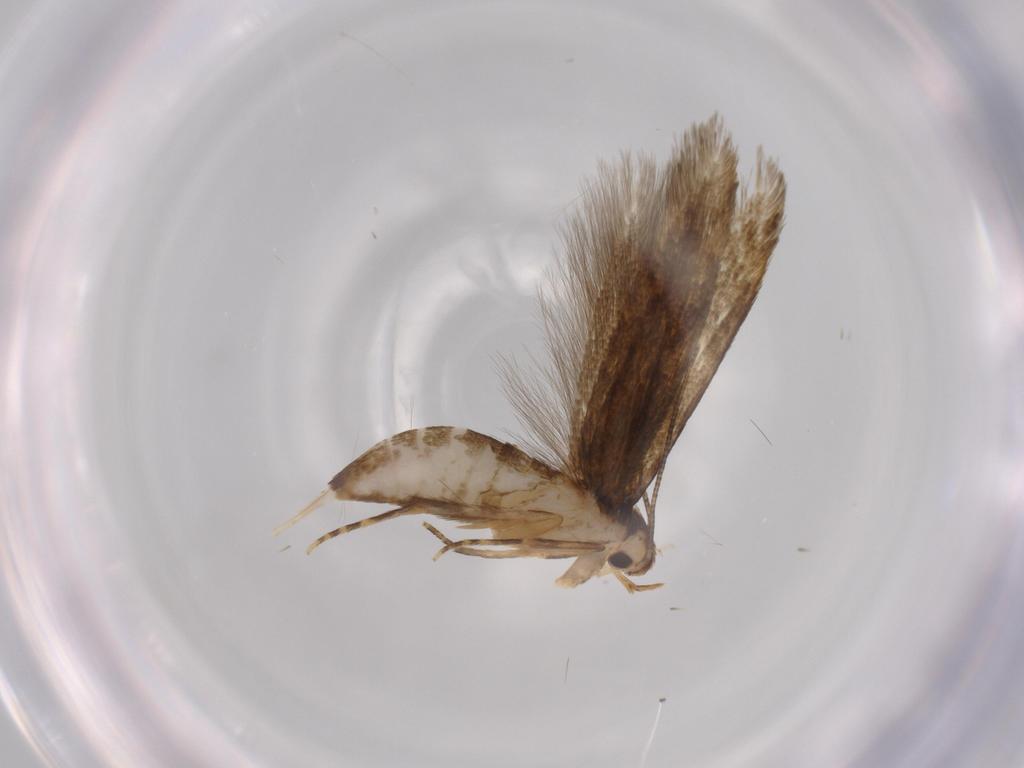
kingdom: Animalia
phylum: Arthropoda
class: Insecta
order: Lepidoptera
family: Tineidae
